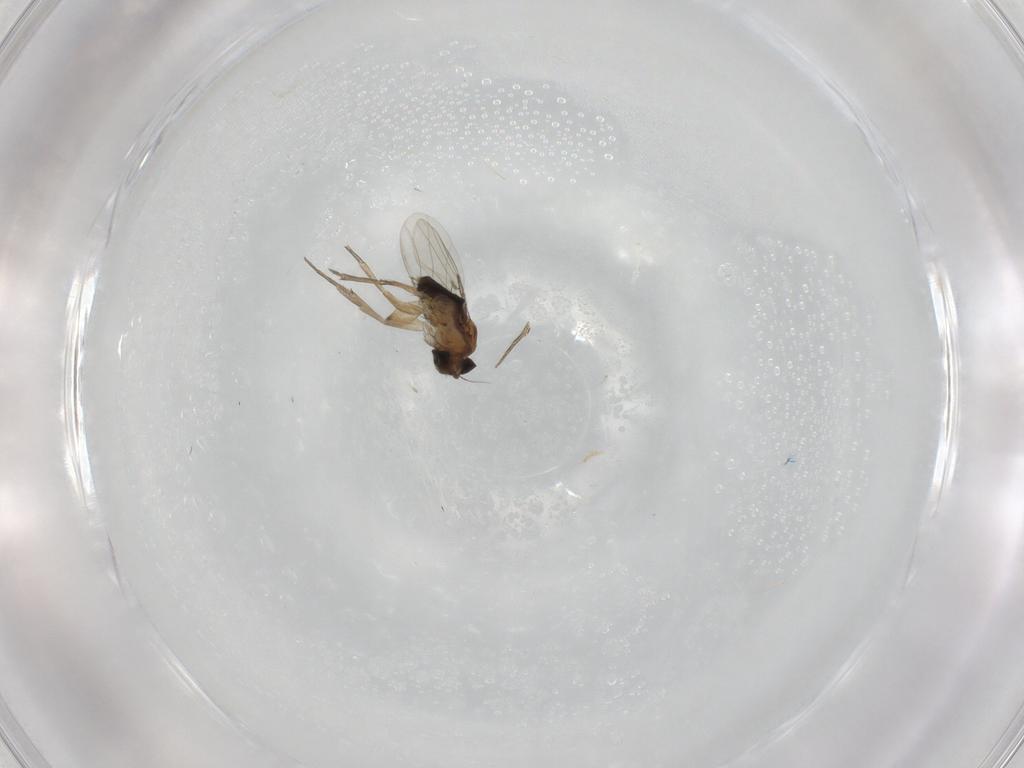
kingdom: Animalia
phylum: Arthropoda
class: Insecta
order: Diptera
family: Phoridae
